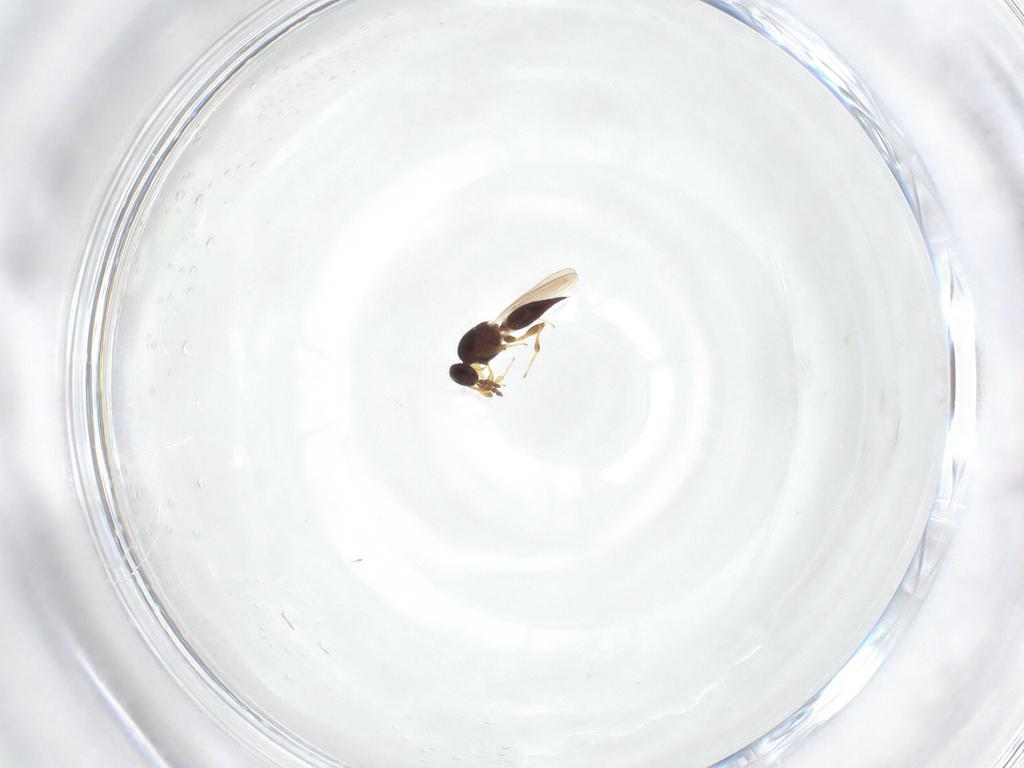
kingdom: Animalia
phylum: Arthropoda
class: Insecta
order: Hymenoptera
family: Platygastridae
